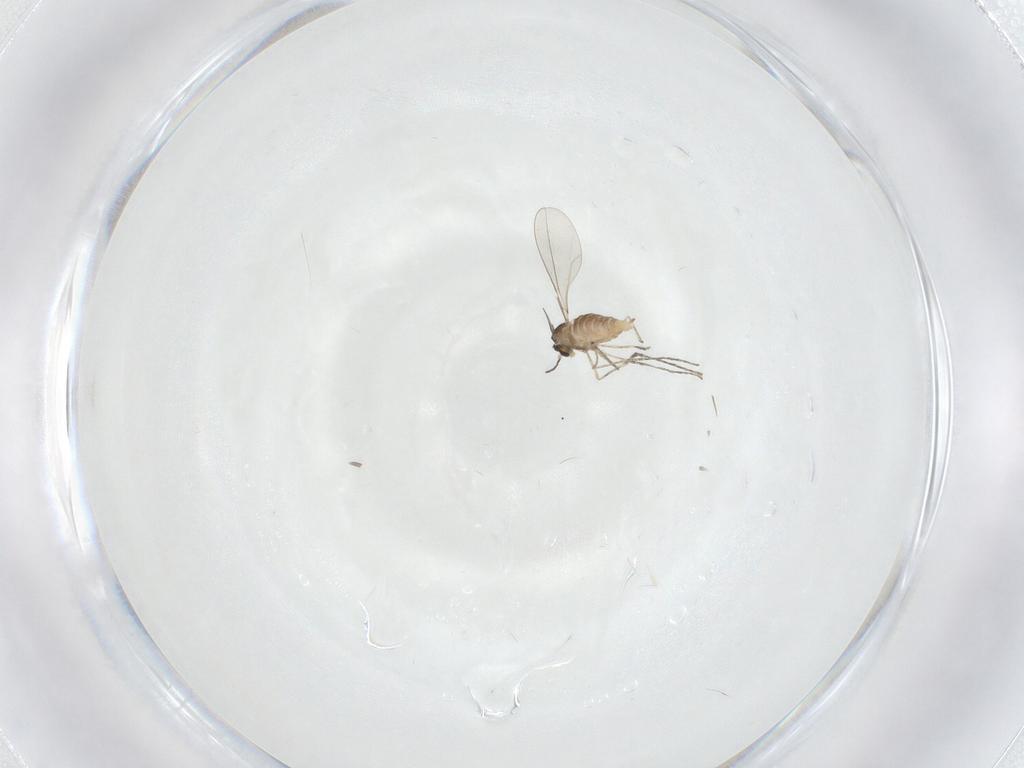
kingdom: Animalia
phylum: Arthropoda
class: Insecta
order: Diptera
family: Cecidomyiidae
